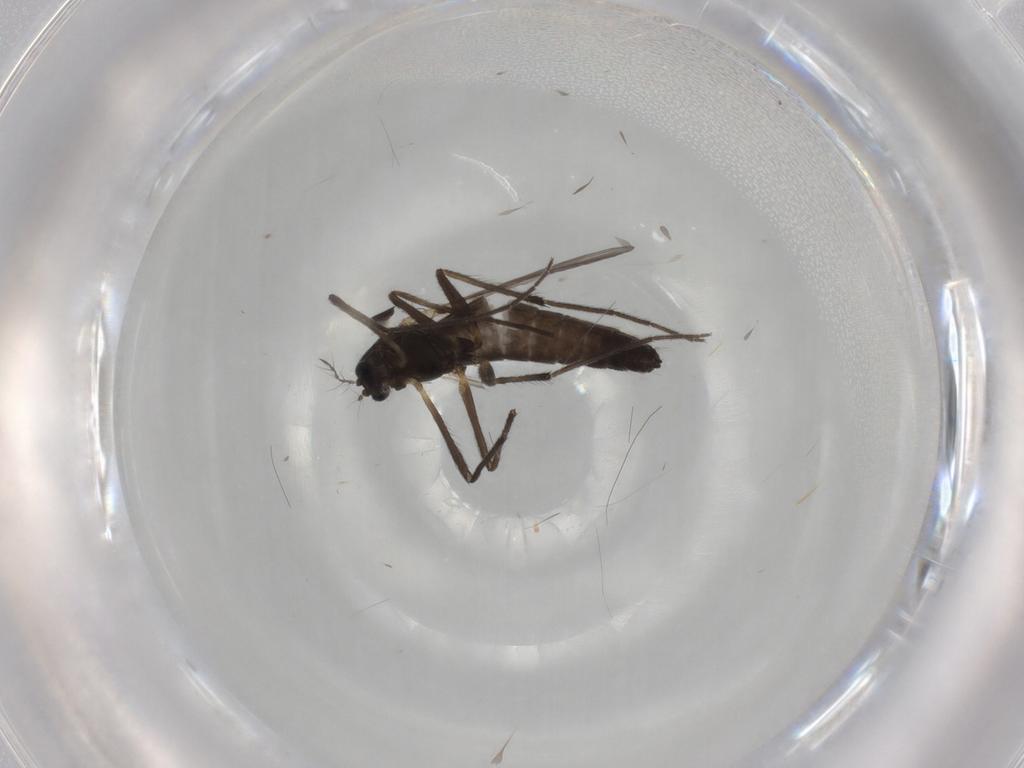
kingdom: Animalia
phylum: Arthropoda
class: Insecta
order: Diptera
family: Chironomidae
